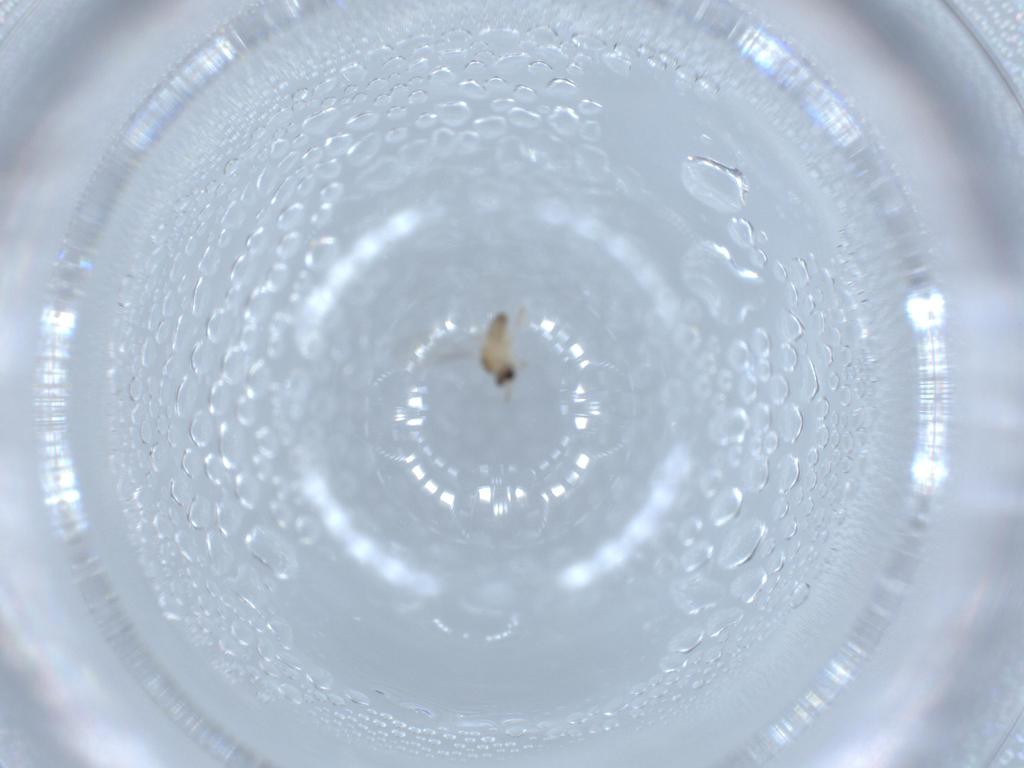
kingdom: Animalia
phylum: Arthropoda
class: Insecta
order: Diptera
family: Cecidomyiidae
